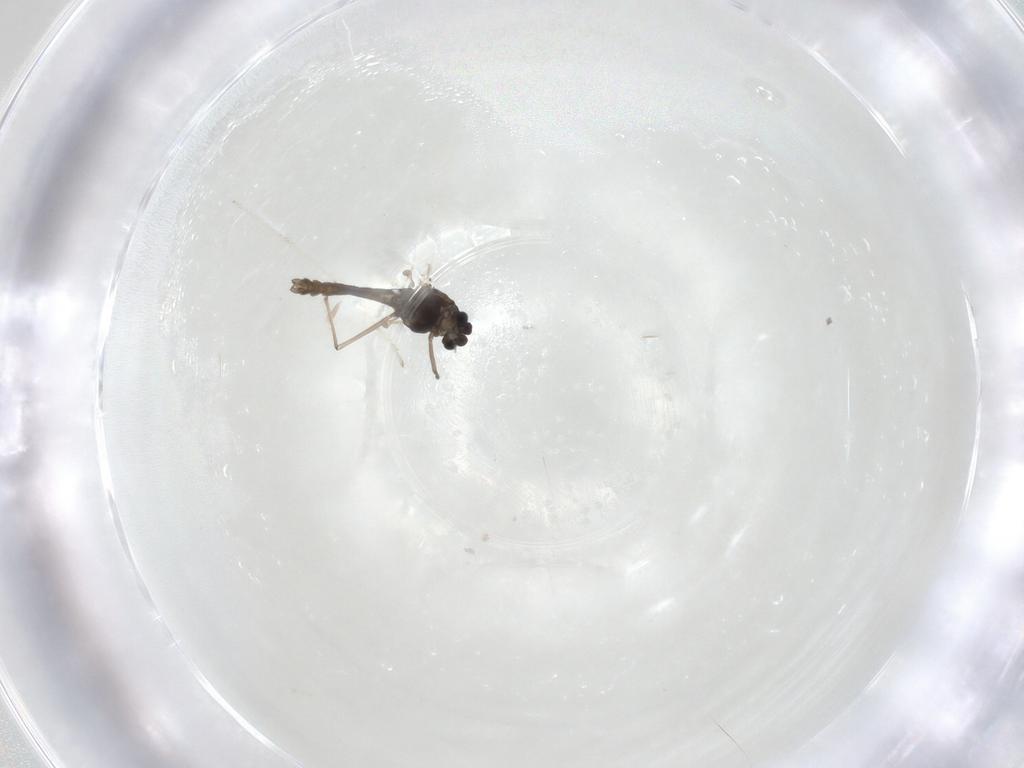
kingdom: Animalia
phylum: Arthropoda
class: Insecta
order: Diptera
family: Chironomidae
